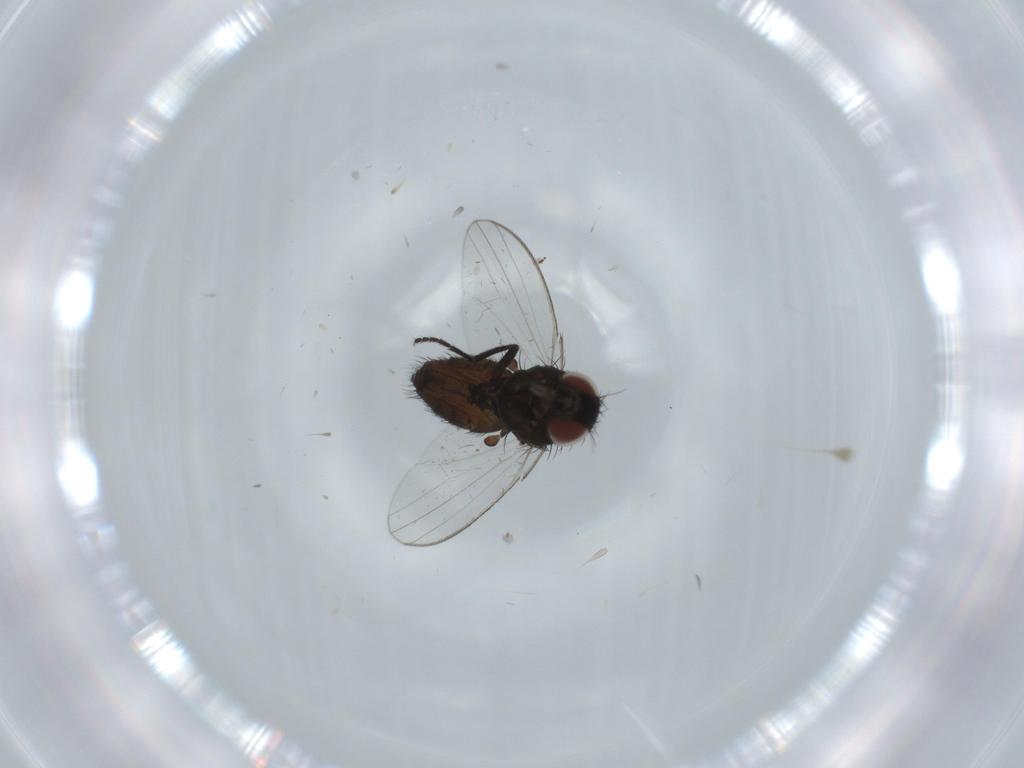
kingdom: Animalia
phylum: Arthropoda
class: Insecta
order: Diptera
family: Milichiidae
